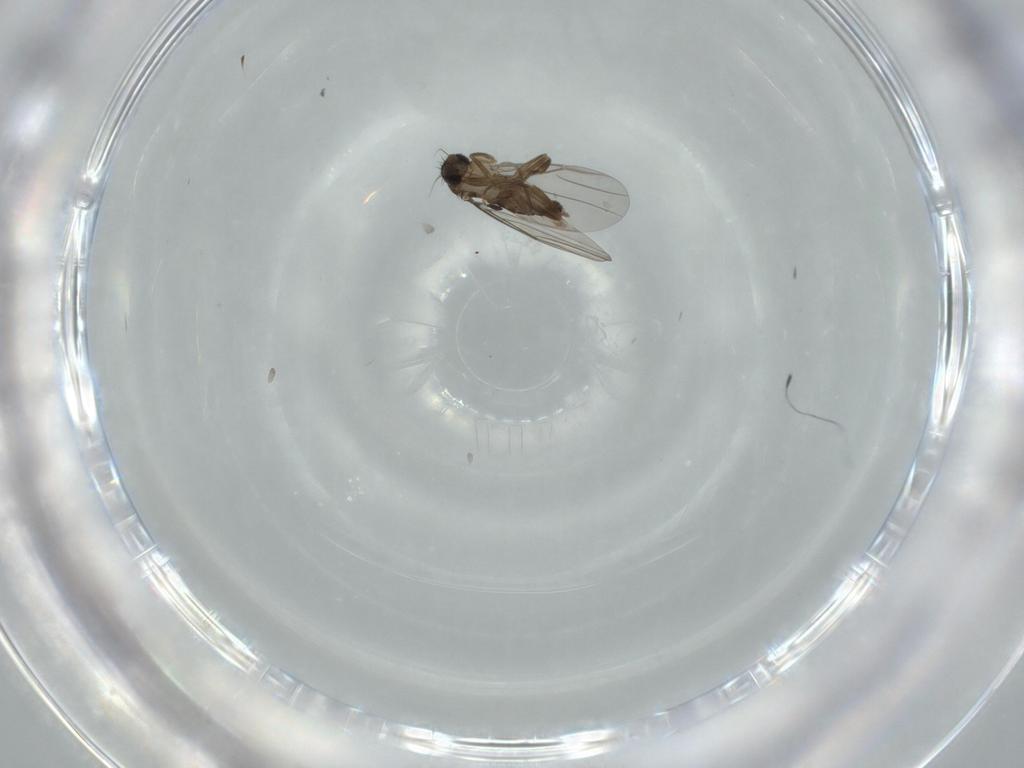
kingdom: Animalia
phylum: Arthropoda
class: Insecta
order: Diptera
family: Phoridae
